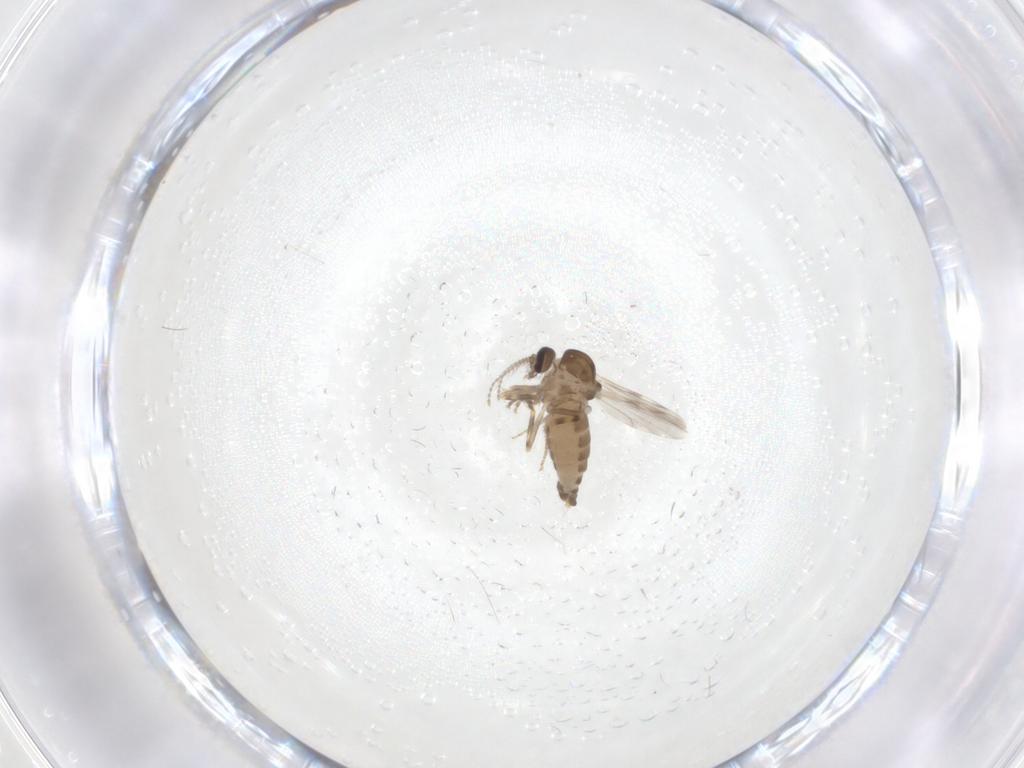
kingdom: Animalia
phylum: Arthropoda
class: Insecta
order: Diptera
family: Ceratopogonidae
